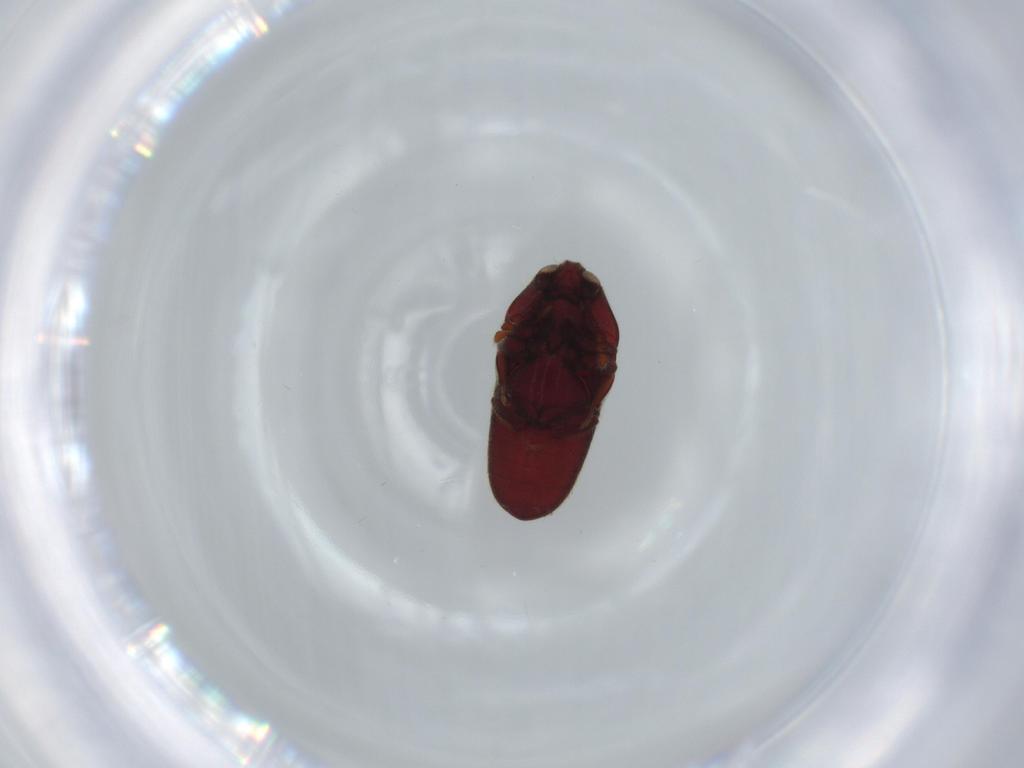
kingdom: Animalia
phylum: Arthropoda
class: Insecta
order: Coleoptera
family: Throscidae
